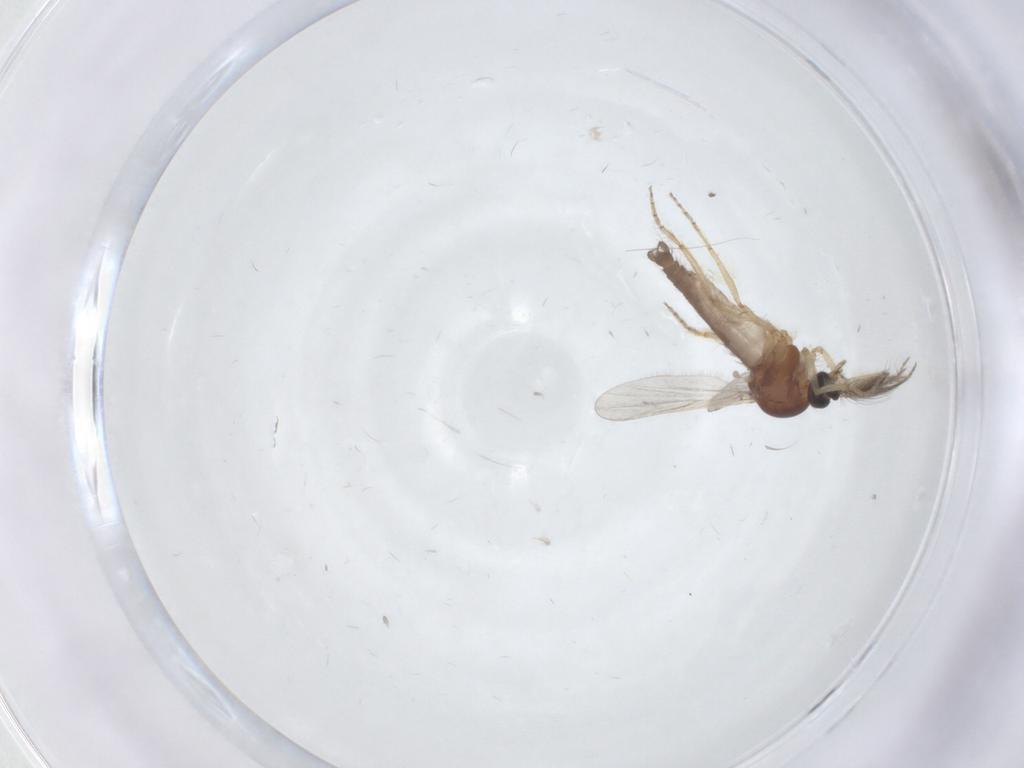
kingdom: Animalia
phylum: Arthropoda
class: Insecta
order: Diptera
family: Ceratopogonidae
